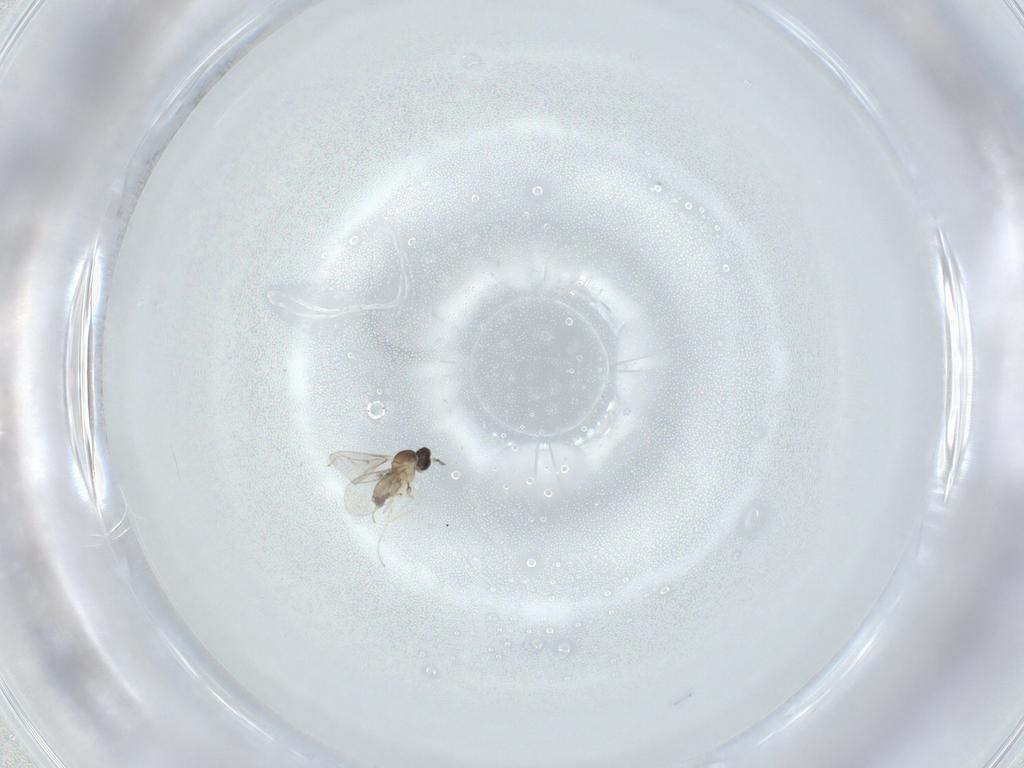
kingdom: Animalia
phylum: Arthropoda
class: Insecta
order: Diptera
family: Cecidomyiidae
